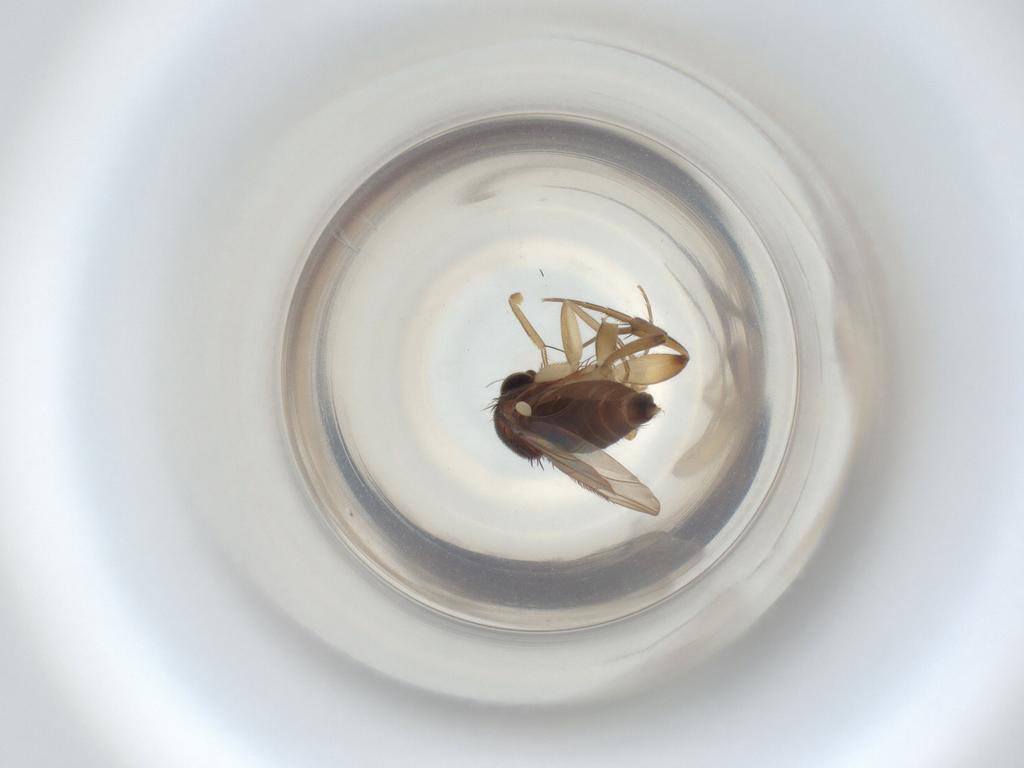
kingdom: Animalia
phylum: Arthropoda
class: Insecta
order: Diptera
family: Phoridae
